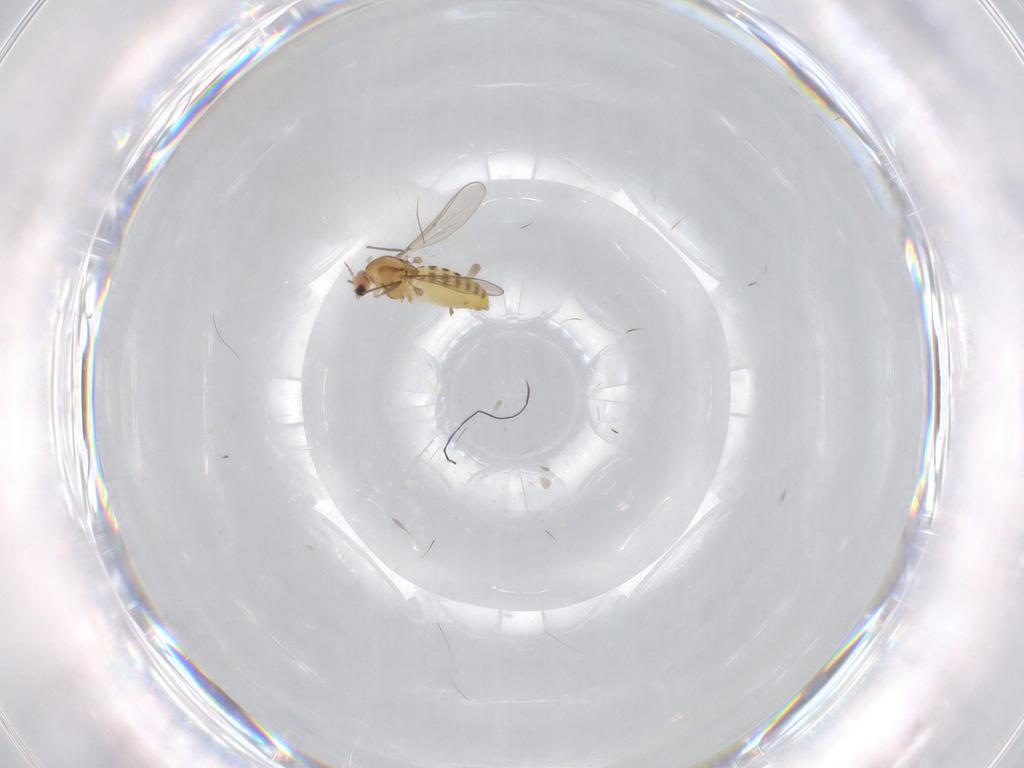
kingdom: Animalia
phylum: Arthropoda
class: Insecta
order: Diptera
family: Chironomidae
